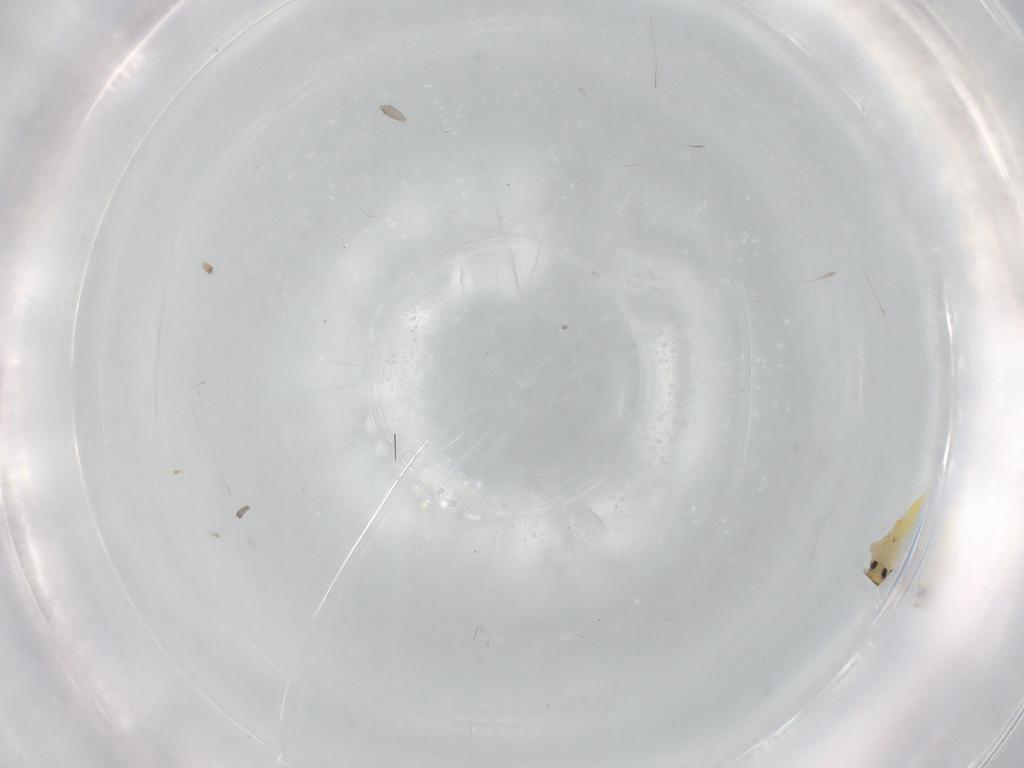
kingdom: Animalia
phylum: Arthropoda
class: Insecta
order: Hemiptera
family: Aleyrodidae
